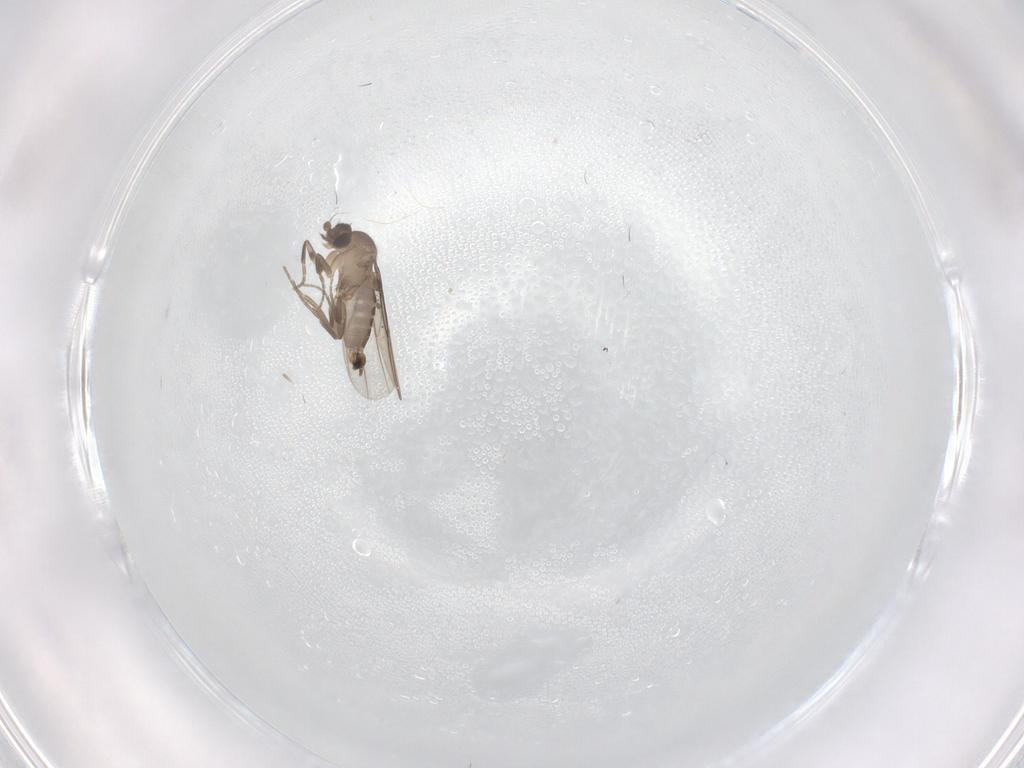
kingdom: Animalia
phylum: Arthropoda
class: Insecta
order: Diptera
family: Phoridae
